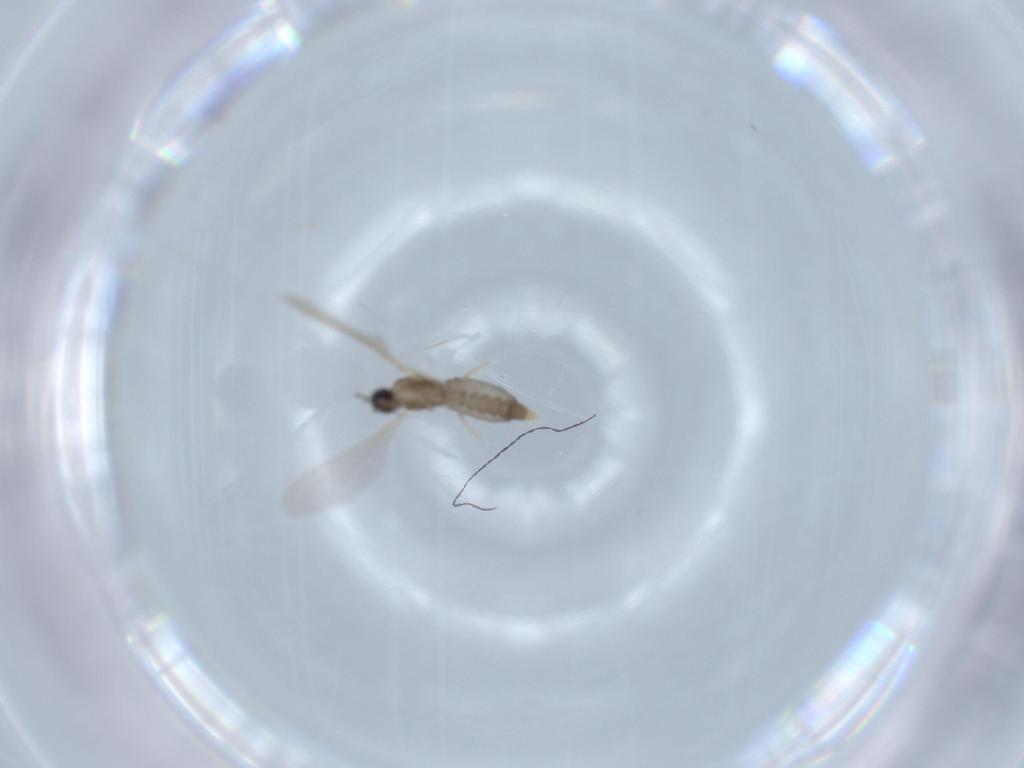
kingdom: Animalia
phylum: Arthropoda
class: Insecta
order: Diptera
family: Cecidomyiidae
